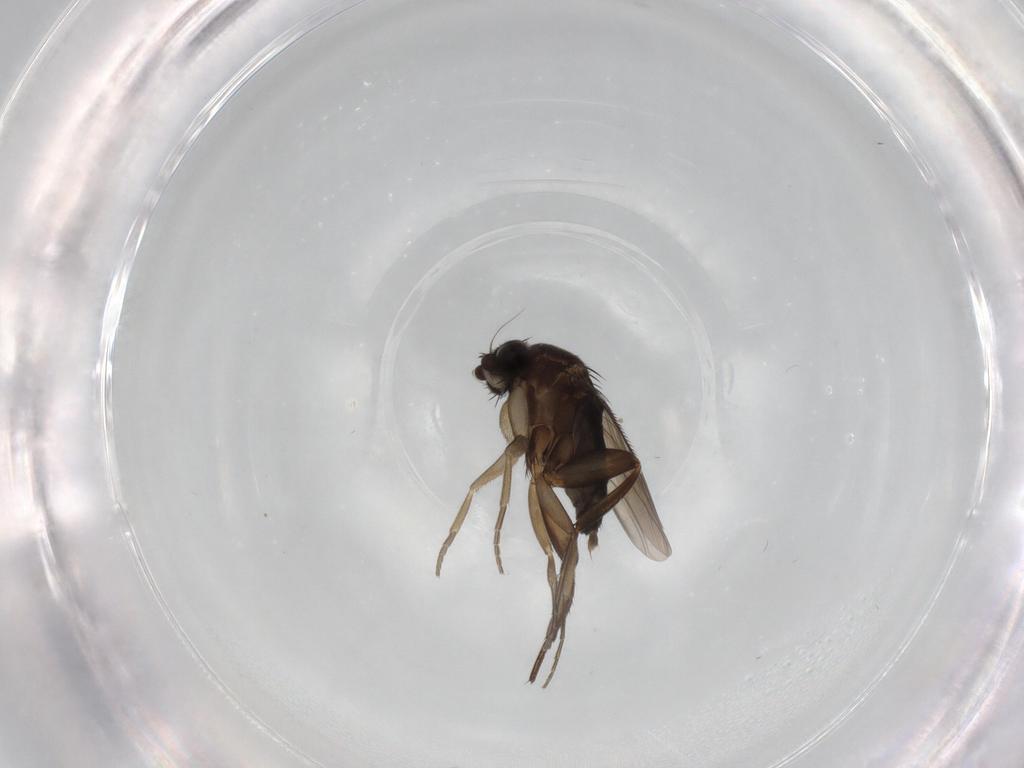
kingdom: Animalia
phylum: Arthropoda
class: Insecta
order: Diptera
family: Phoridae
